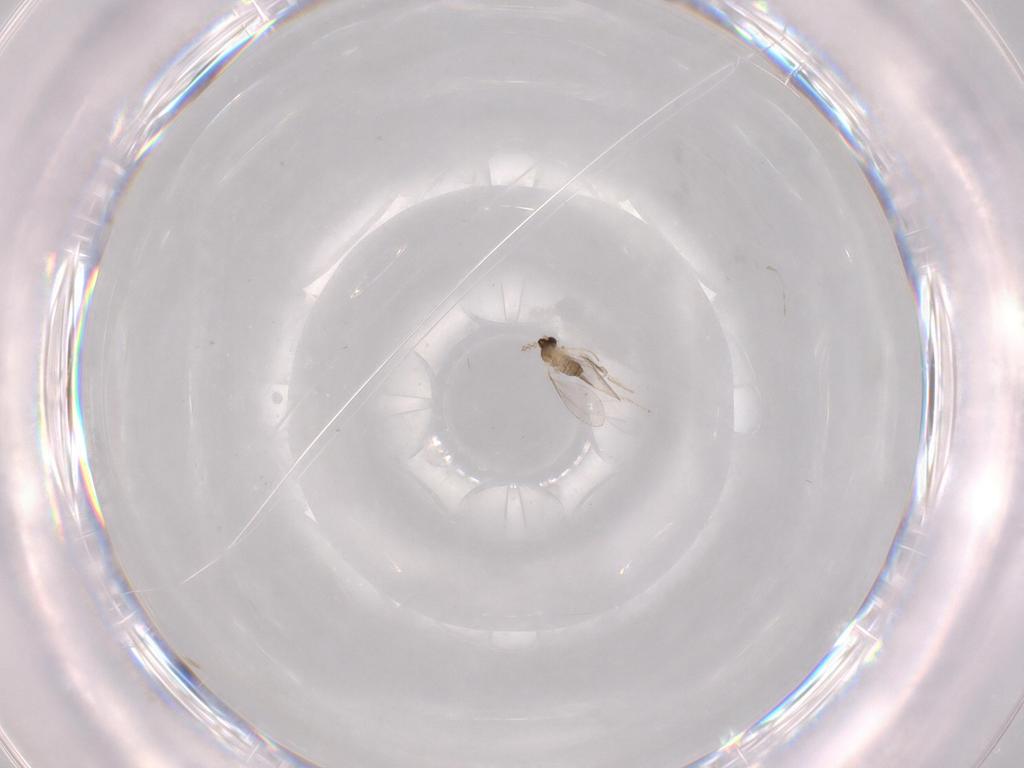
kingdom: Animalia
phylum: Arthropoda
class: Insecta
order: Diptera
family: Cecidomyiidae
